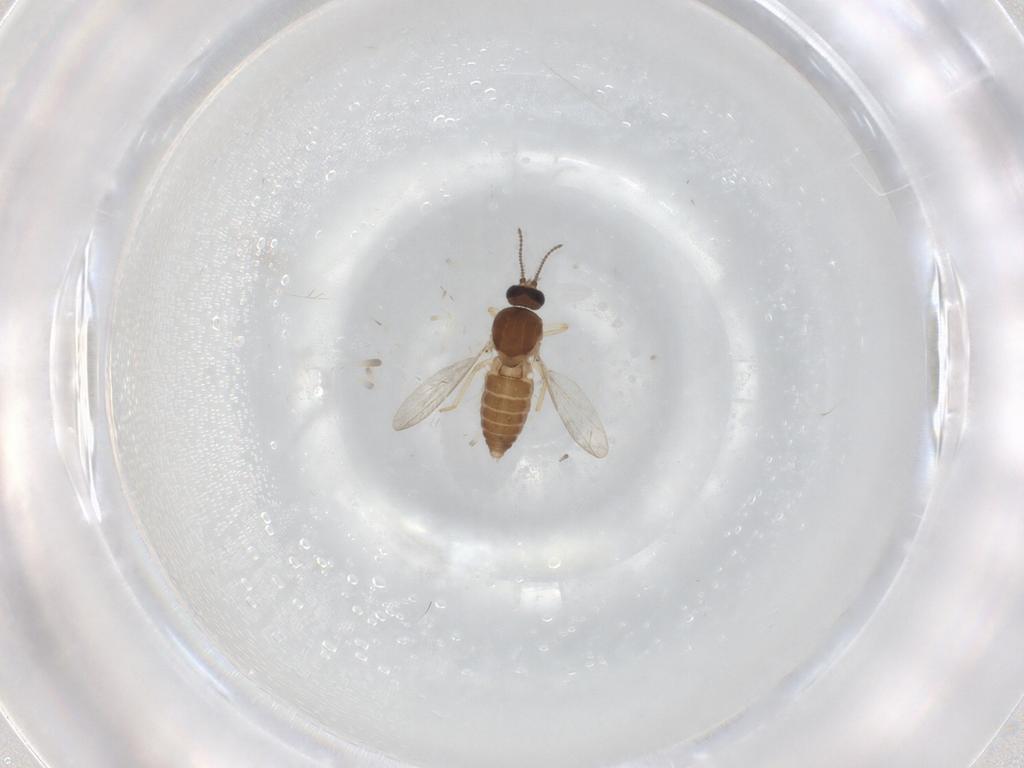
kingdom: Animalia
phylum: Arthropoda
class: Insecta
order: Diptera
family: Ceratopogonidae
